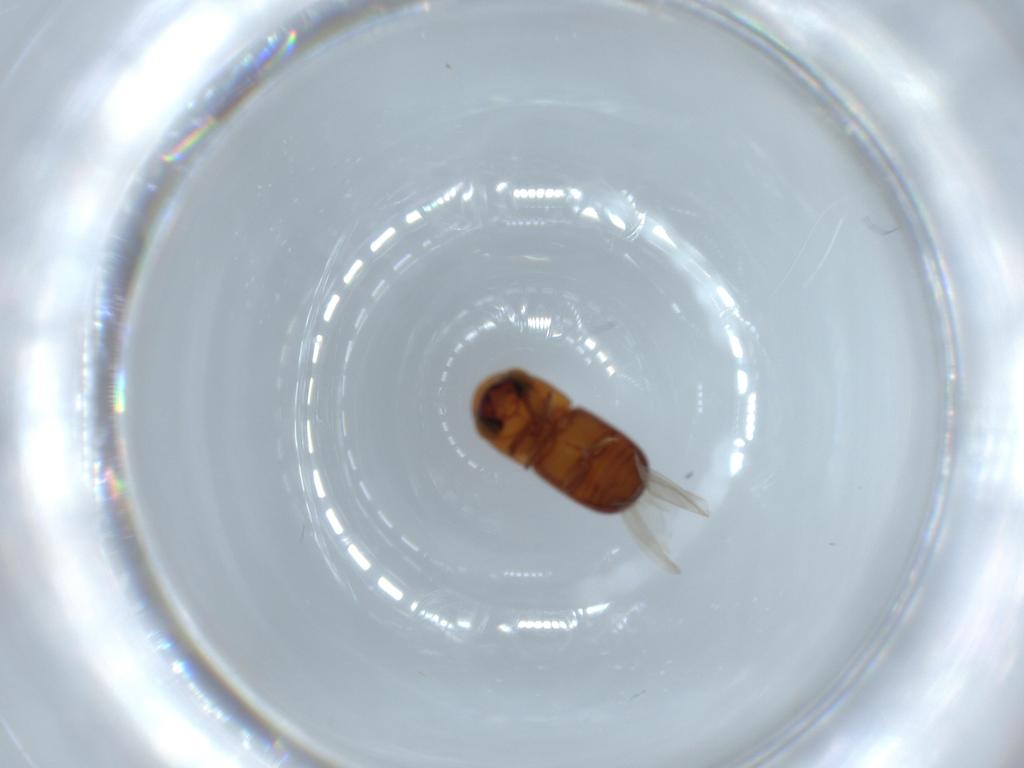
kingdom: Animalia
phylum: Arthropoda
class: Insecta
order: Coleoptera
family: Curculionidae
